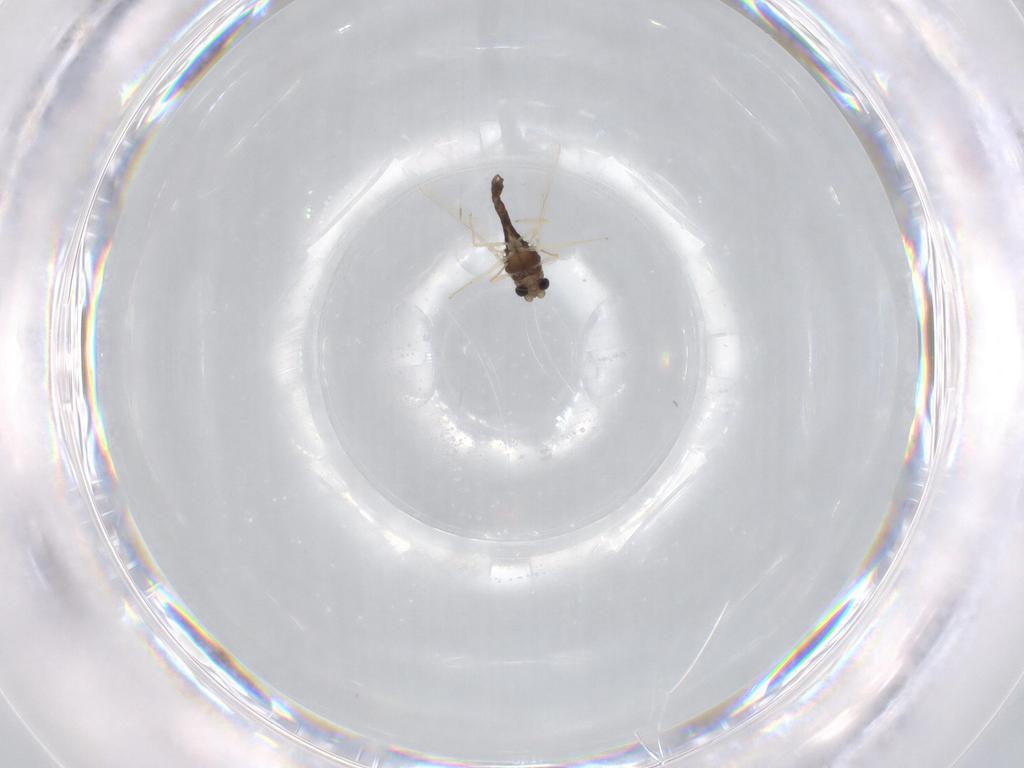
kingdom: Animalia
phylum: Arthropoda
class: Insecta
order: Diptera
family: Chironomidae
